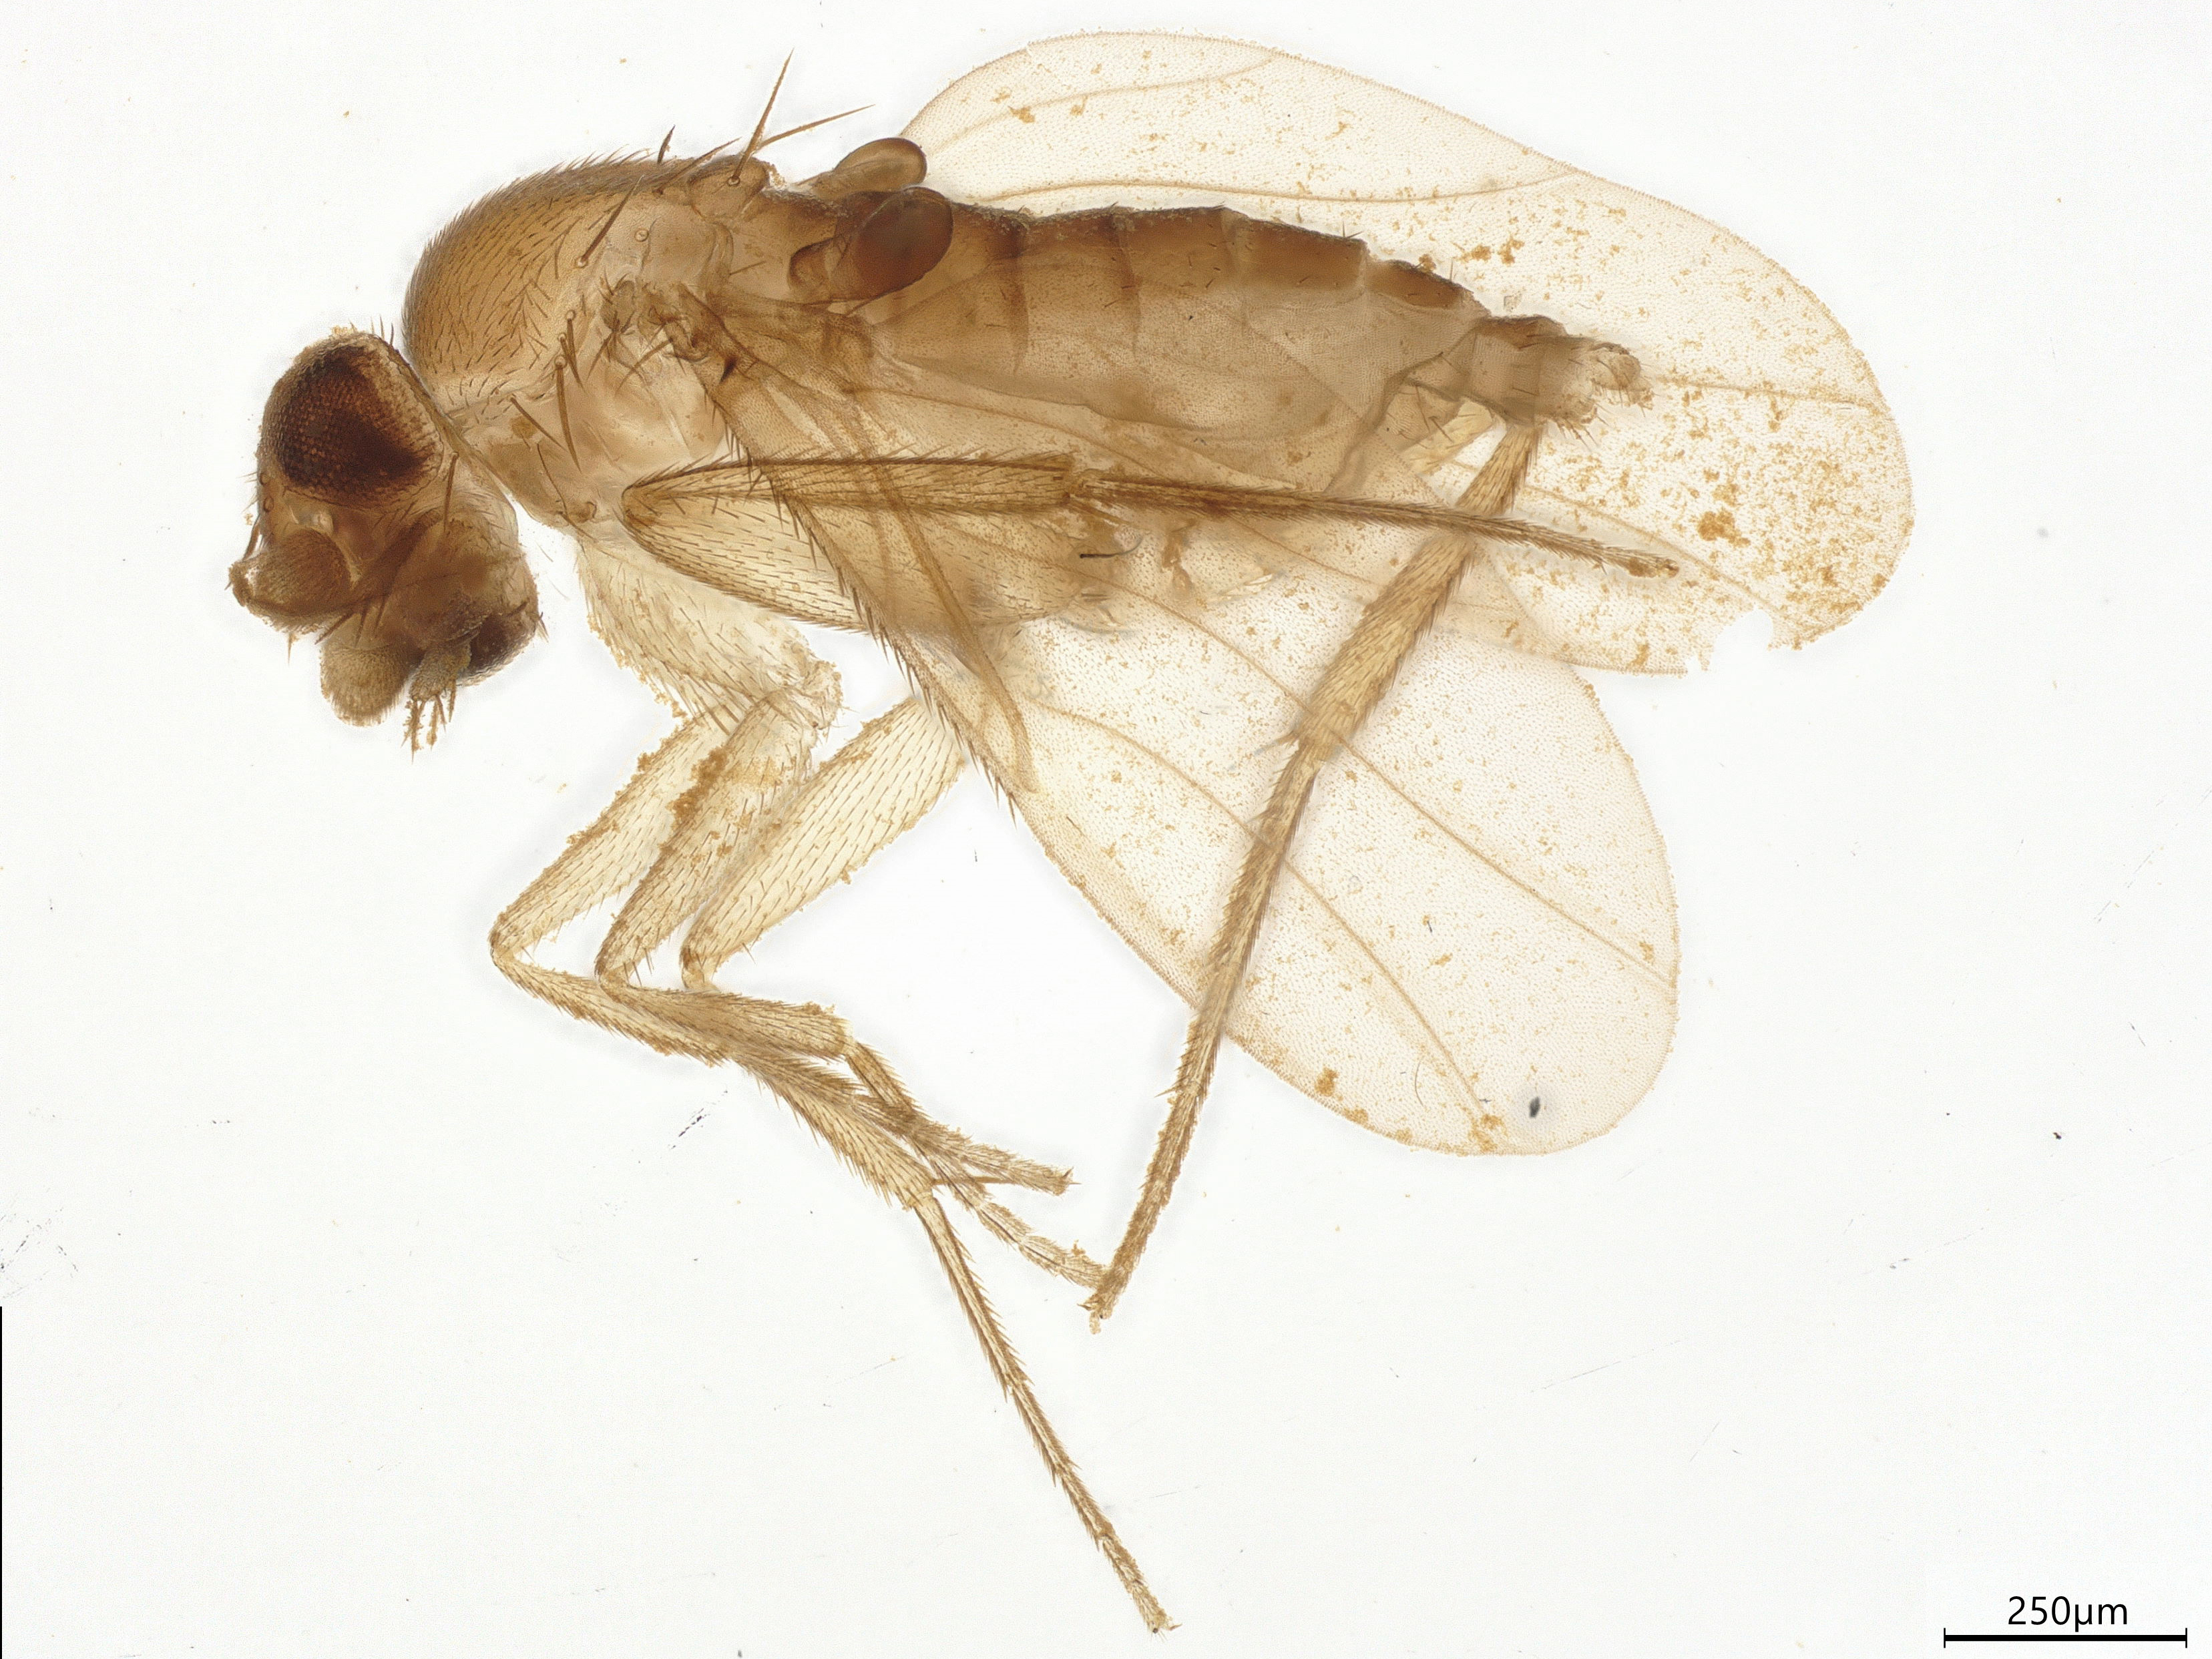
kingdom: Animalia
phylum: Arthropoda
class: Insecta
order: Diptera
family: Phoridae
